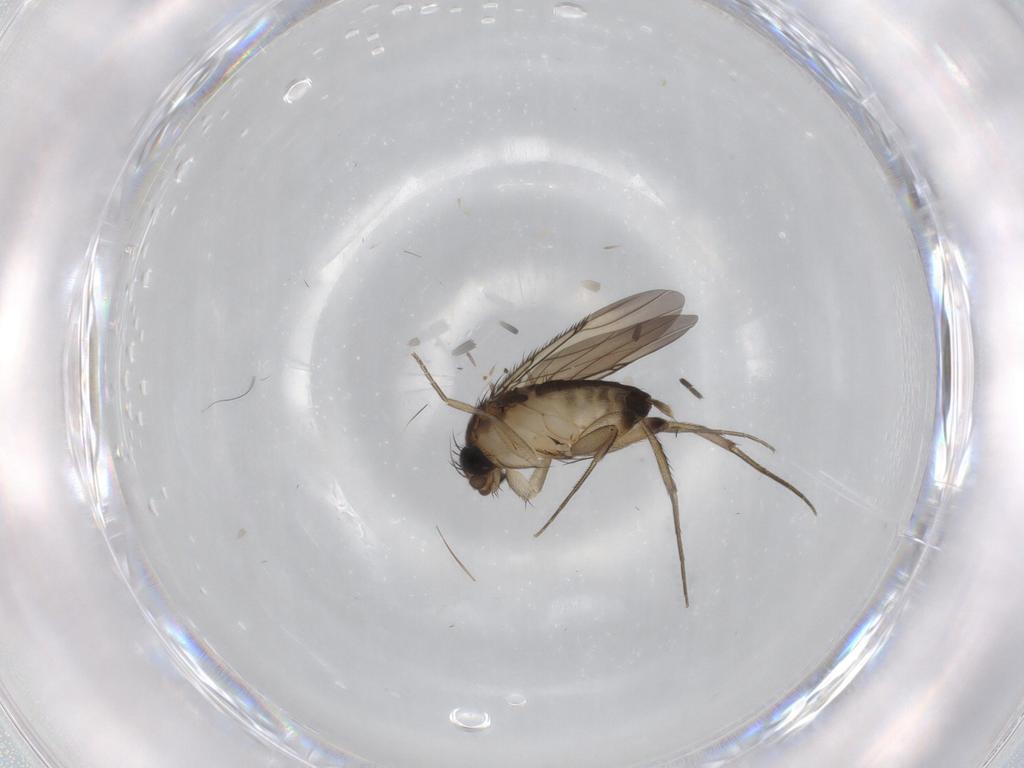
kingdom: Animalia
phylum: Arthropoda
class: Insecta
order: Diptera
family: Sciaridae
